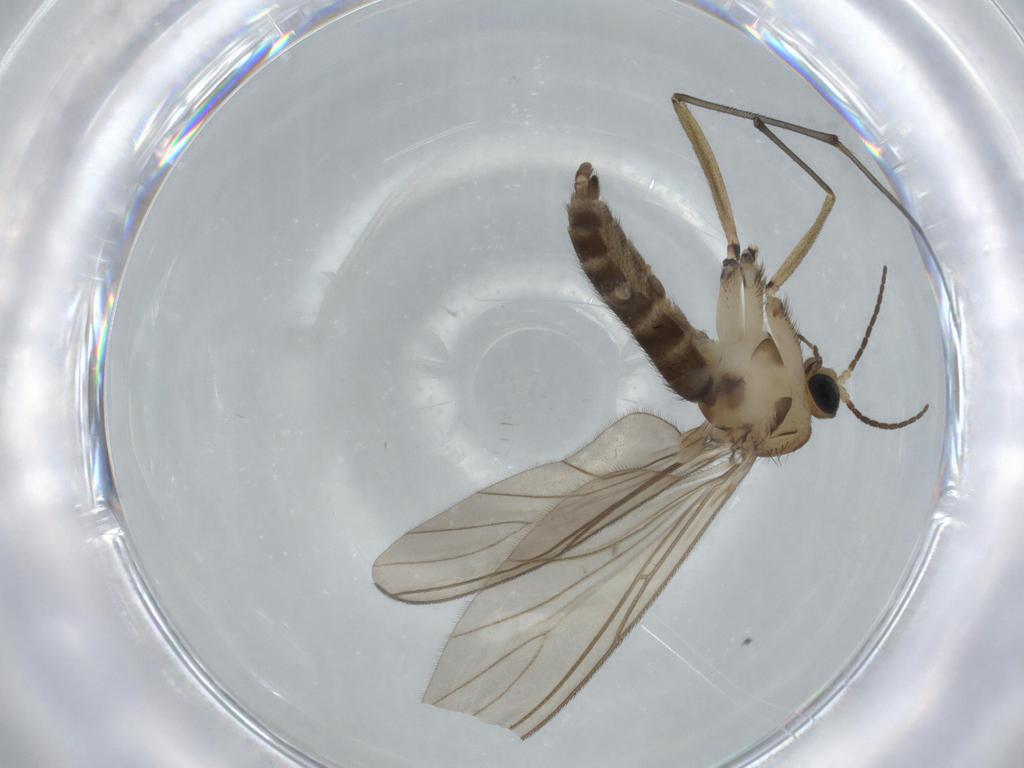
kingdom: Animalia
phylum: Arthropoda
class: Insecta
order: Diptera
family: Sciaridae
